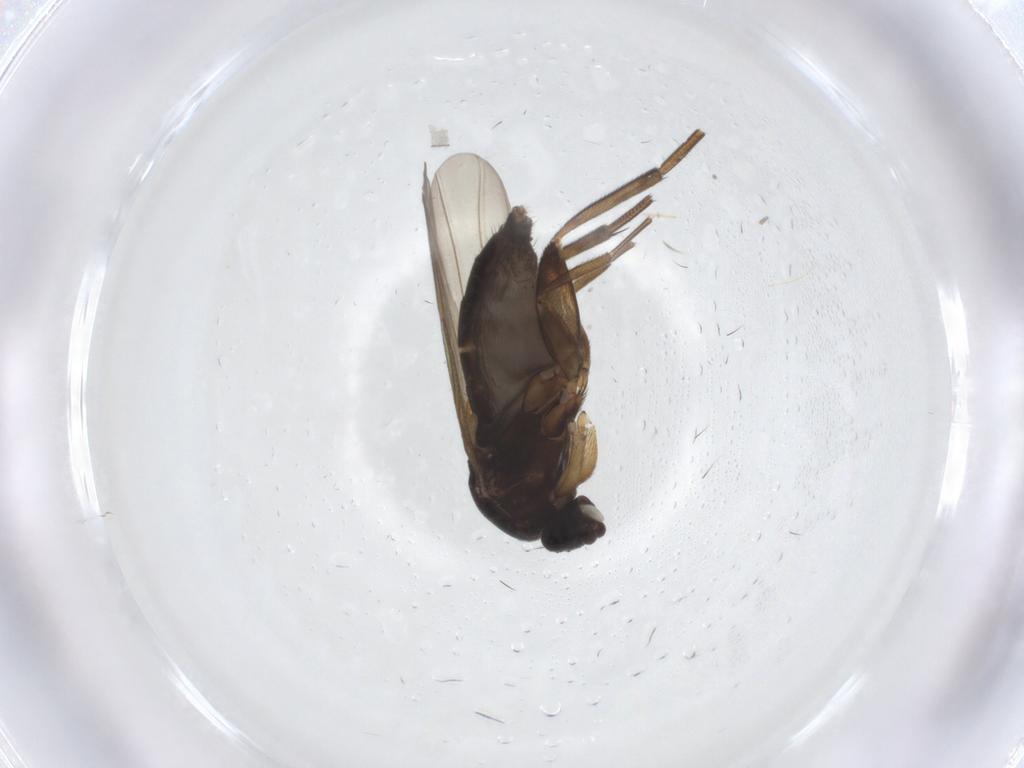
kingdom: Animalia
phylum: Arthropoda
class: Insecta
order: Diptera
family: Phoridae
